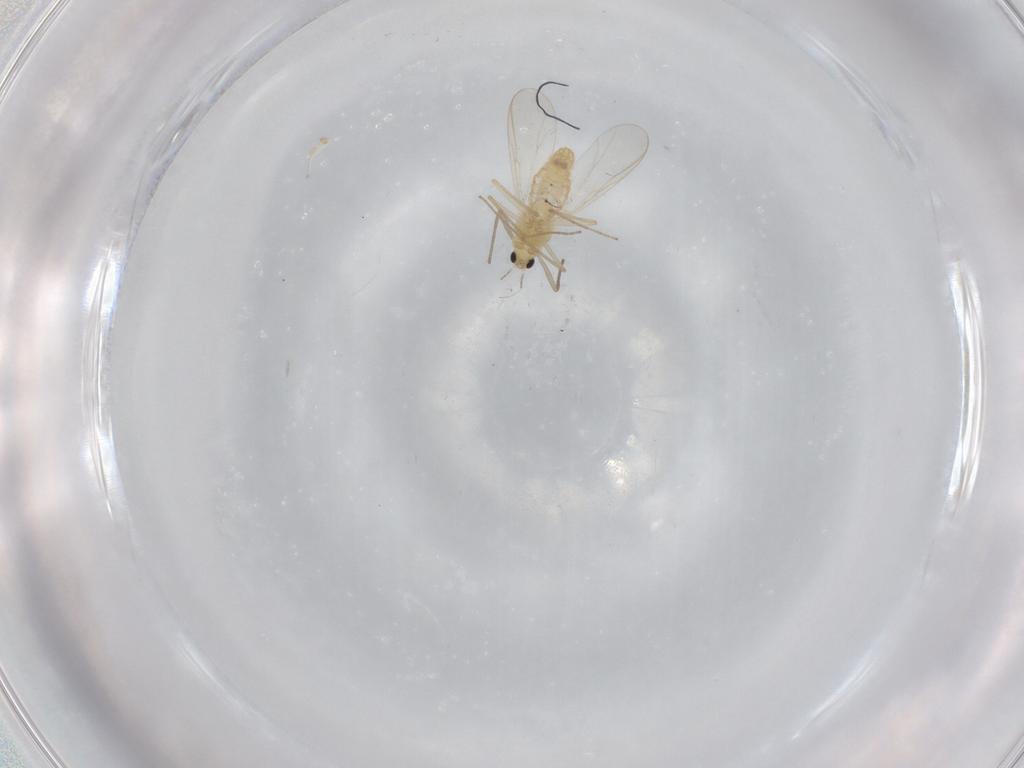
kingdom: Animalia
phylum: Arthropoda
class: Insecta
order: Diptera
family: Chironomidae
